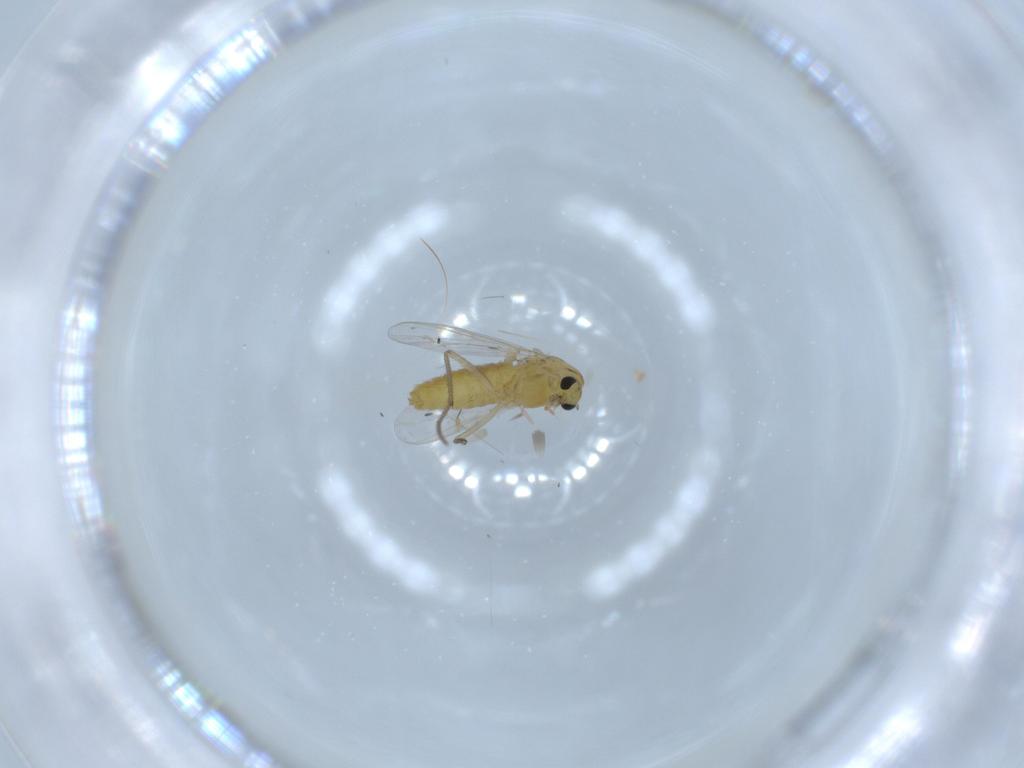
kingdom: Animalia
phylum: Arthropoda
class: Insecta
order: Diptera
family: Chironomidae
